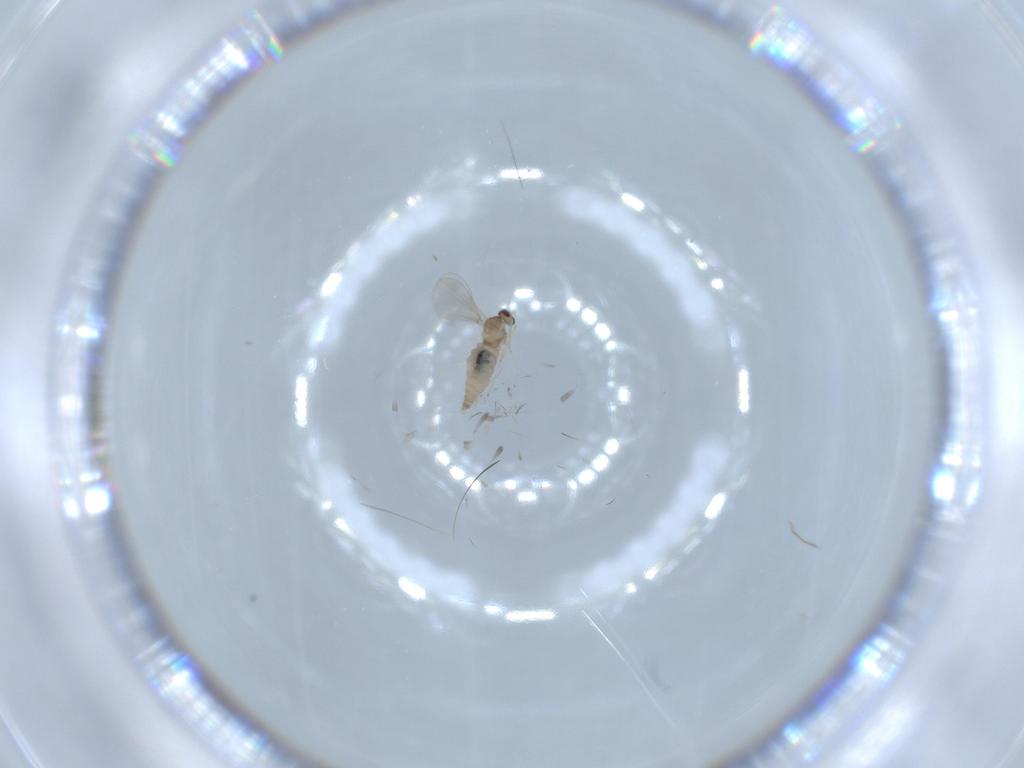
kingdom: Animalia
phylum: Arthropoda
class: Insecta
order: Diptera
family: Cecidomyiidae
